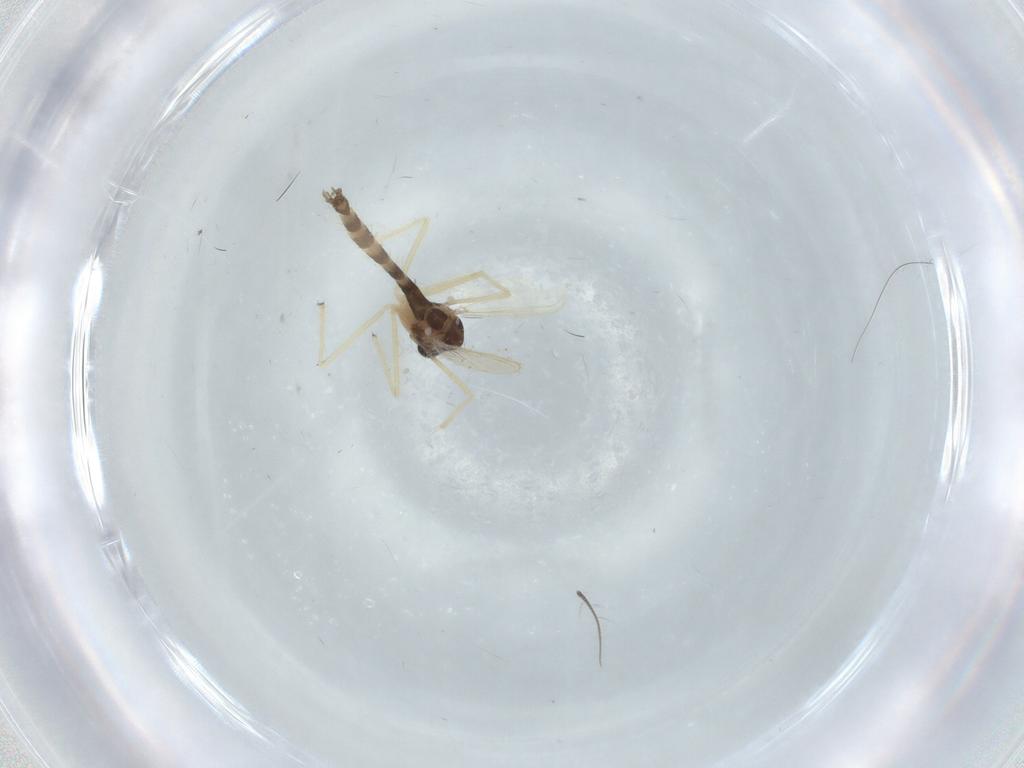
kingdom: Animalia
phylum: Arthropoda
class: Insecta
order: Diptera
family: Chironomidae
